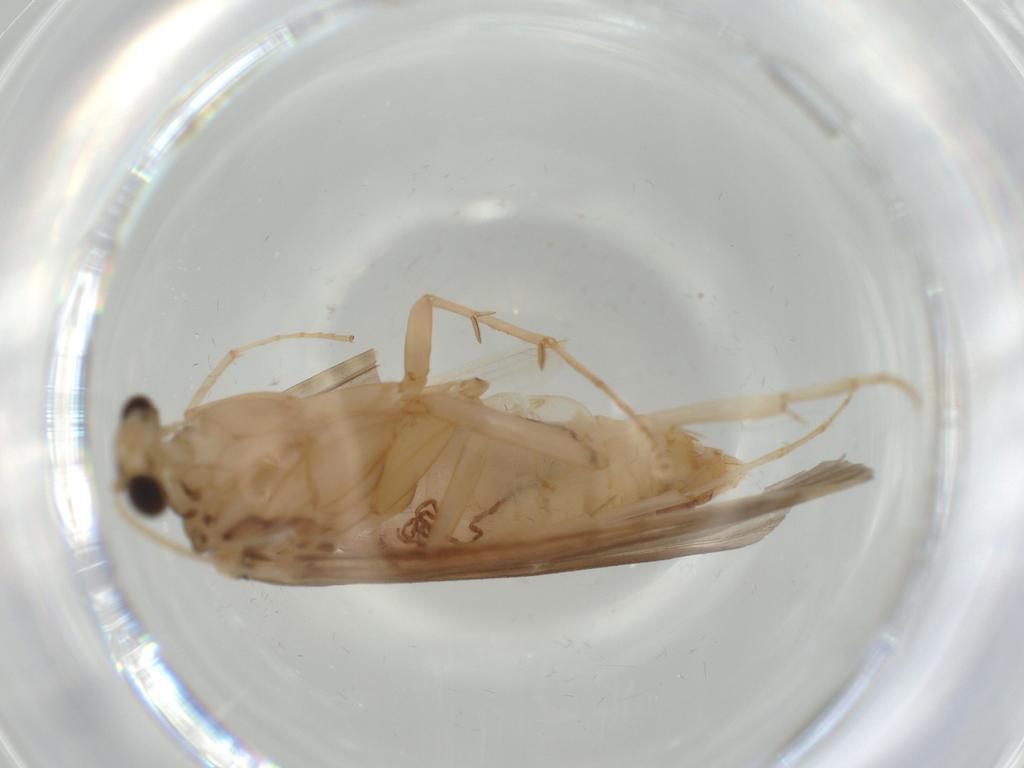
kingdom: Animalia
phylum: Arthropoda
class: Insecta
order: Trichoptera
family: Ecnomidae
